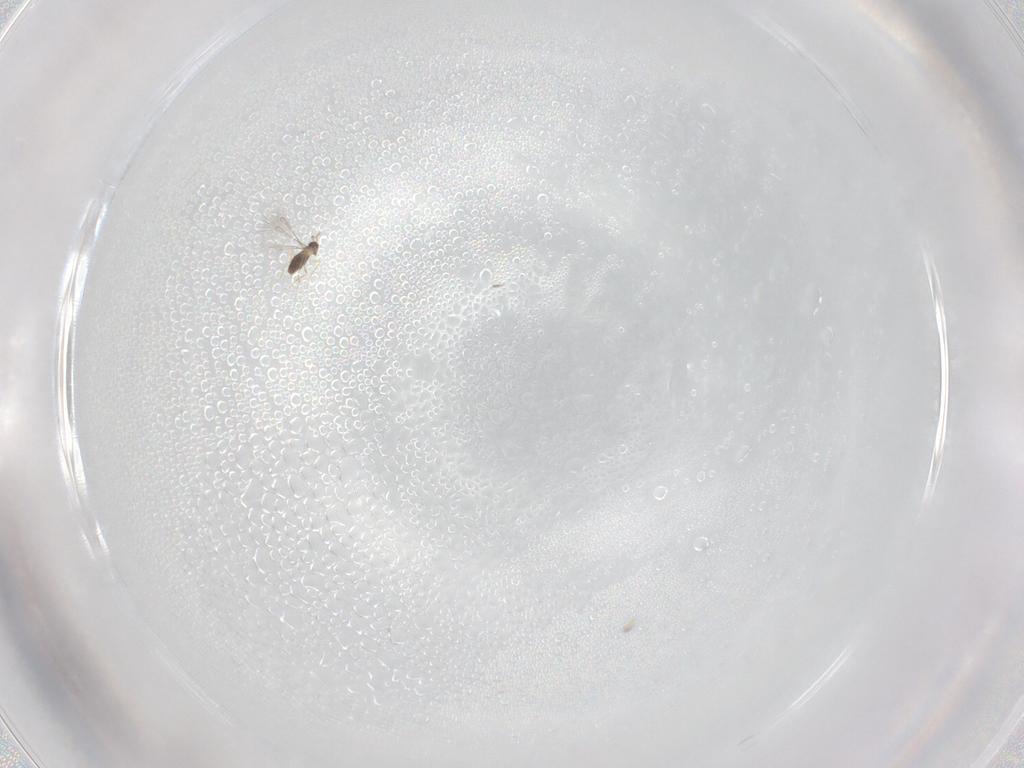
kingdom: Animalia
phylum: Arthropoda
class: Insecta
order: Hymenoptera
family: Mymaridae
